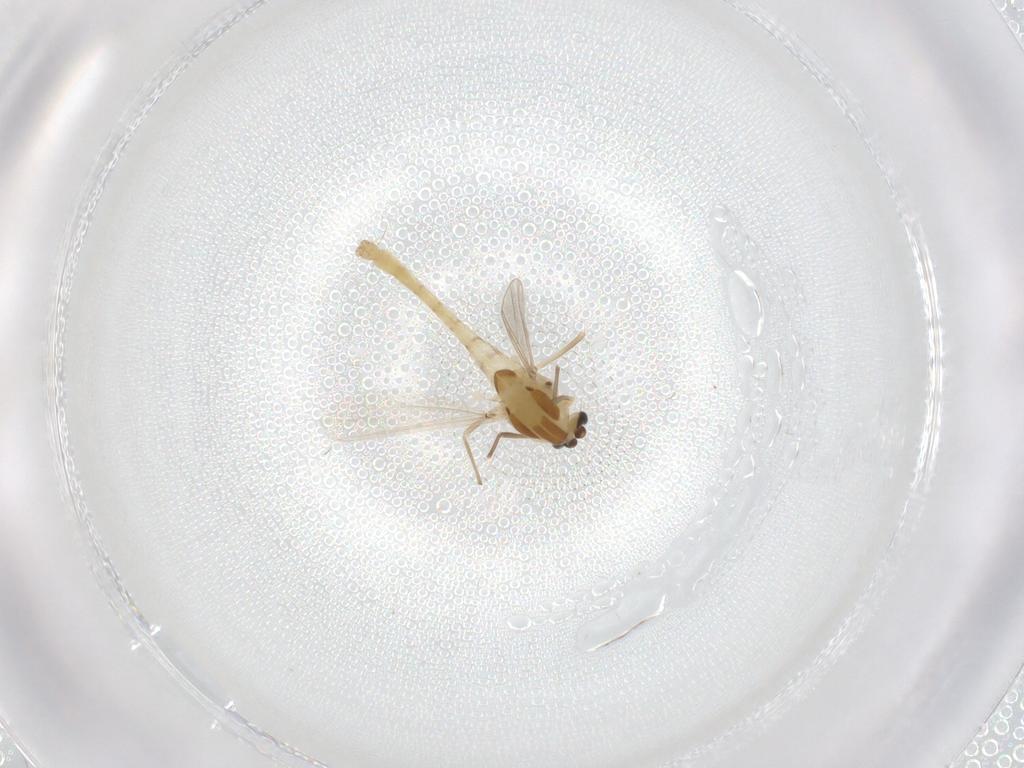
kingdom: Animalia
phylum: Arthropoda
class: Insecta
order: Diptera
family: Chironomidae
